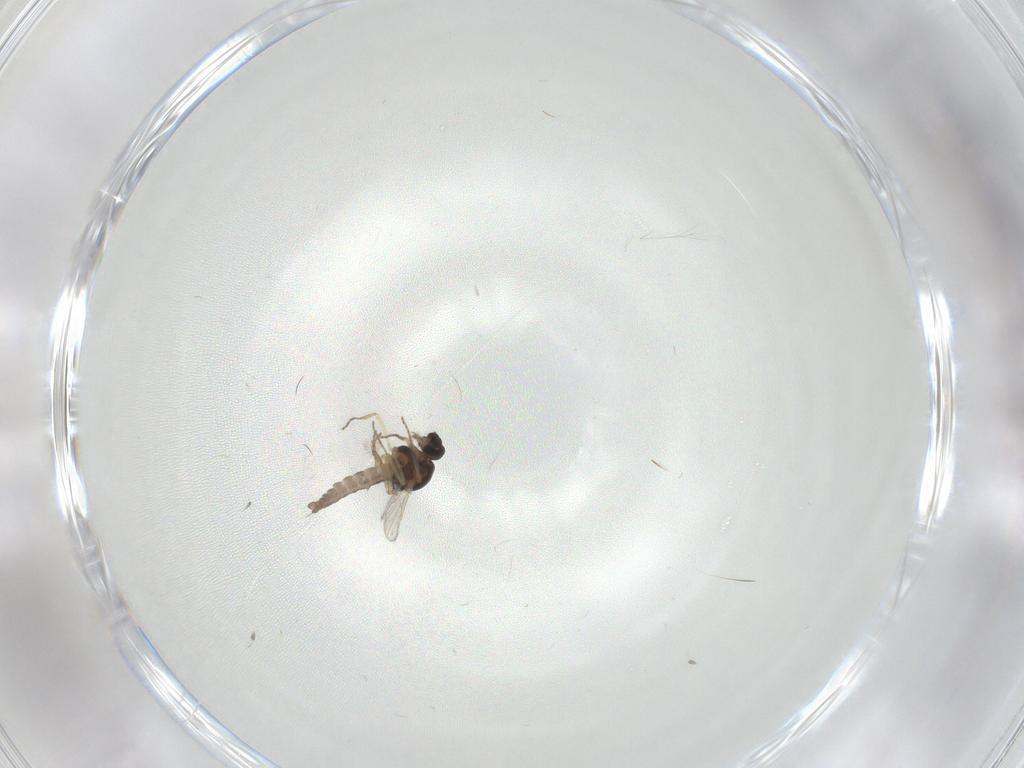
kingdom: Animalia
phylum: Arthropoda
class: Insecta
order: Diptera
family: Ceratopogonidae
